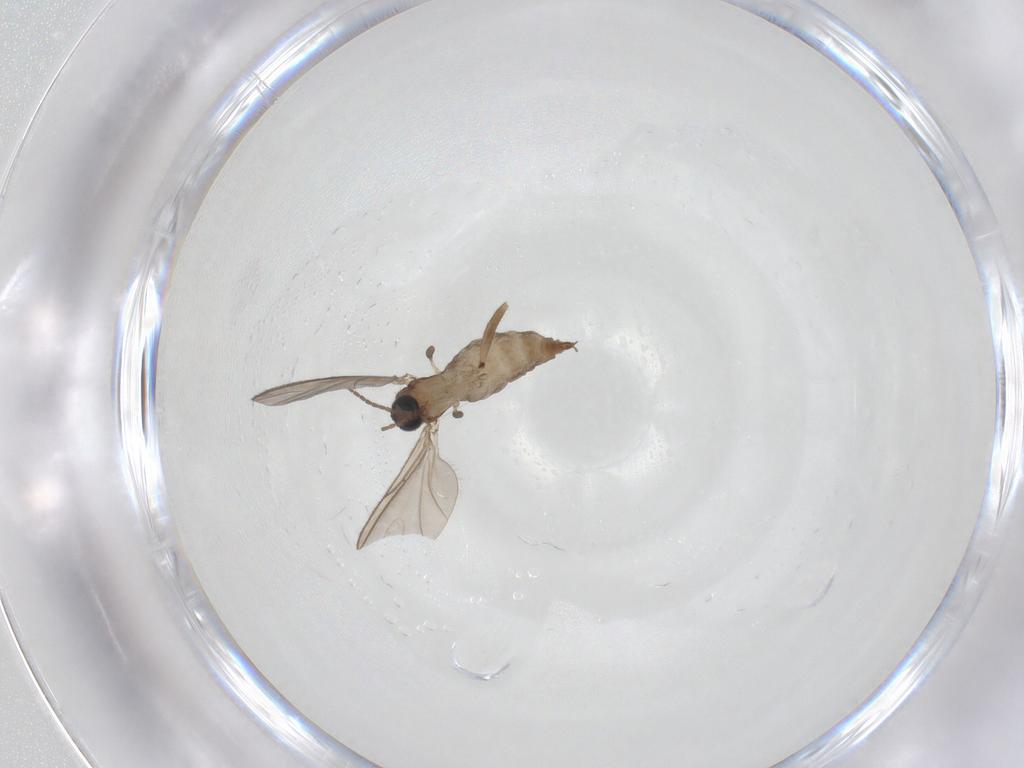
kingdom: Animalia
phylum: Arthropoda
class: Insecta
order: Diptera
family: Sciaridae
